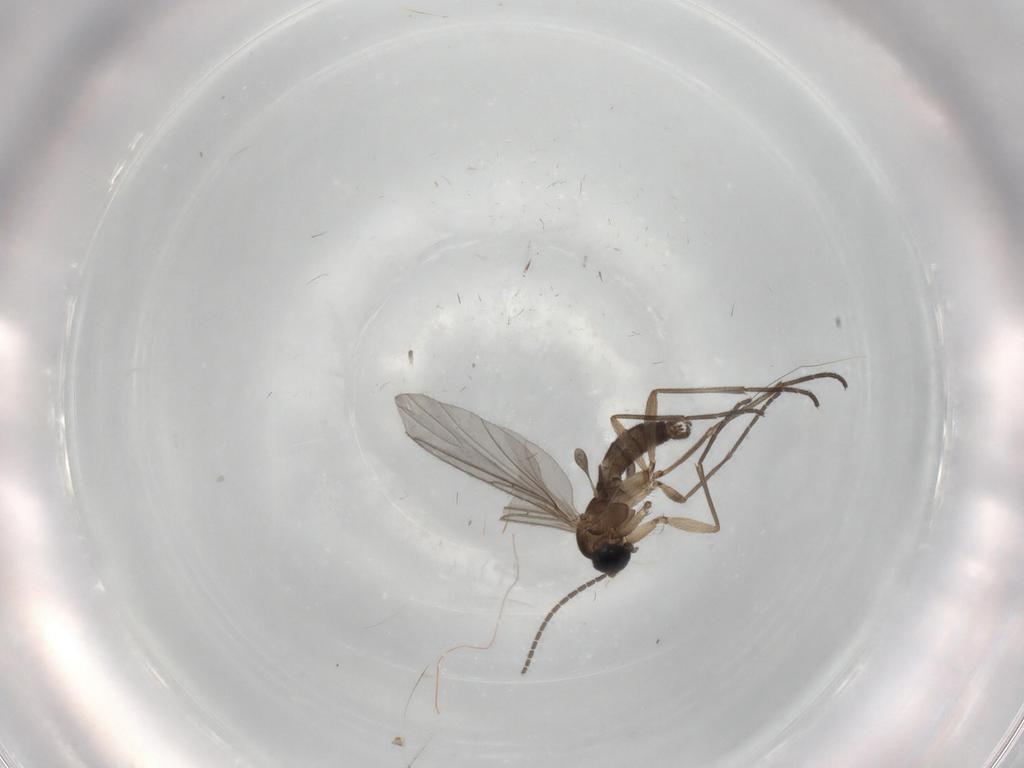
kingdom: Animalia
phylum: Arthropoda
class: Insecta
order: Diptera
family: Sciaridae
